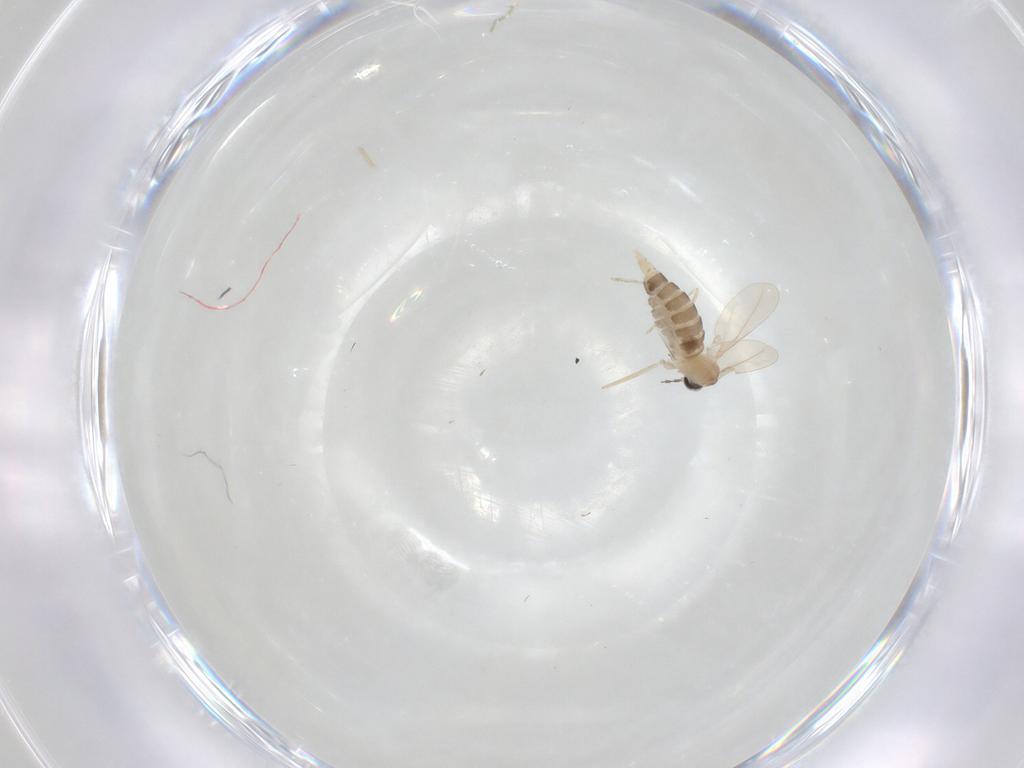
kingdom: Animalia
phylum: Arthropoda
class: Insecta
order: Diptera
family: Cecidomyiidae
